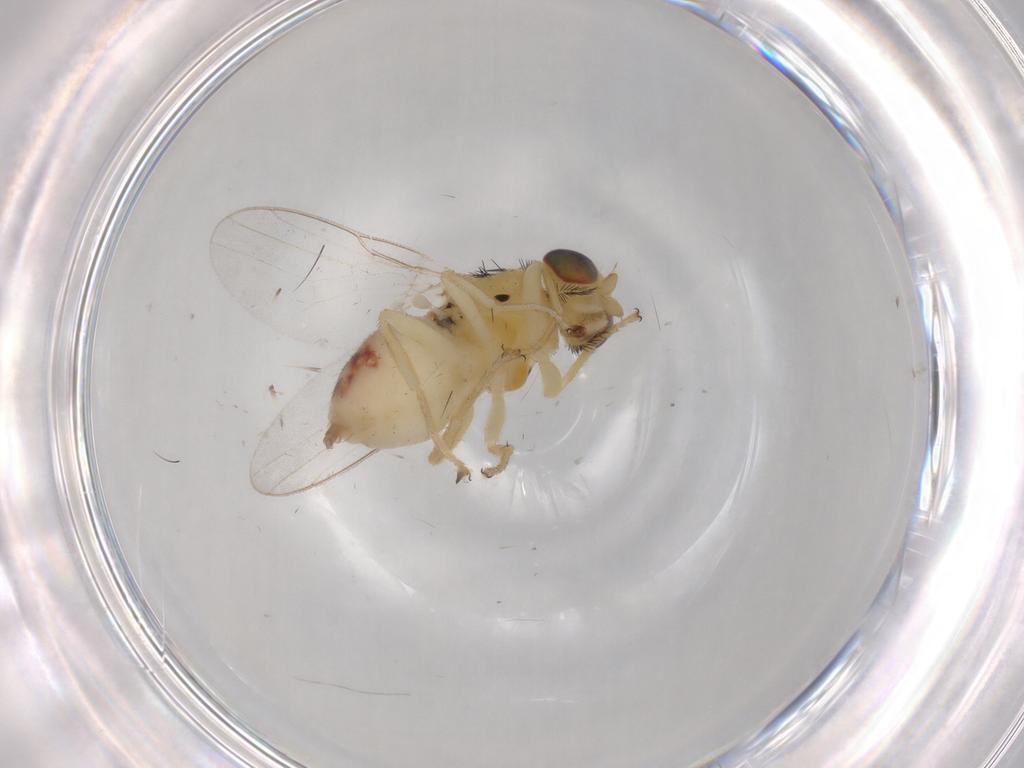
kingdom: Animalia
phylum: Arthropoda
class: Insecta
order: Diptera
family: Chloropidae
